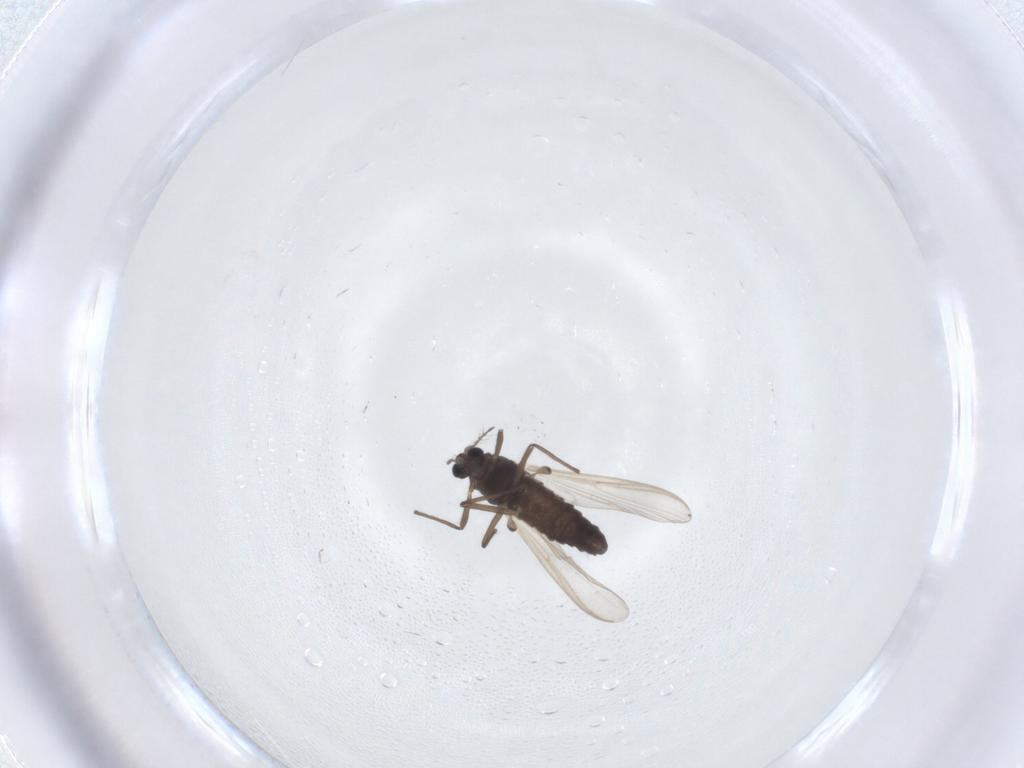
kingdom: Animalia
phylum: Arthropoda
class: Insecta
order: Diptera
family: Chironomidae
